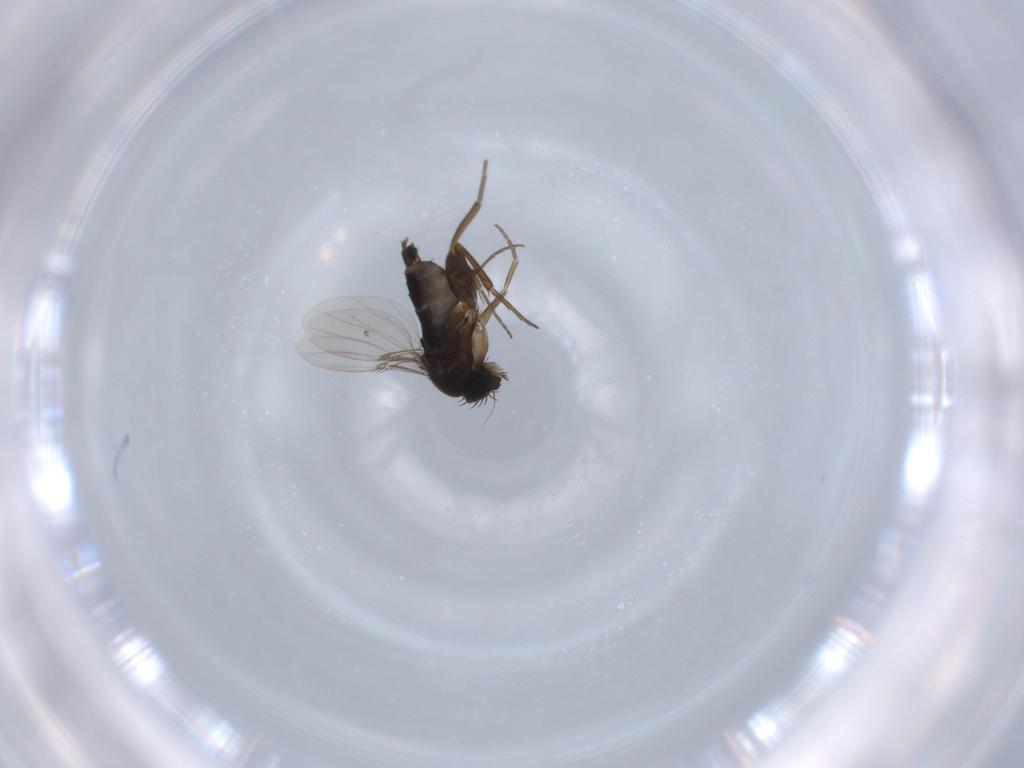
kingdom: Animalia
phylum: Arthropoda
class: Insecta
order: Diptera
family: Phoridae
